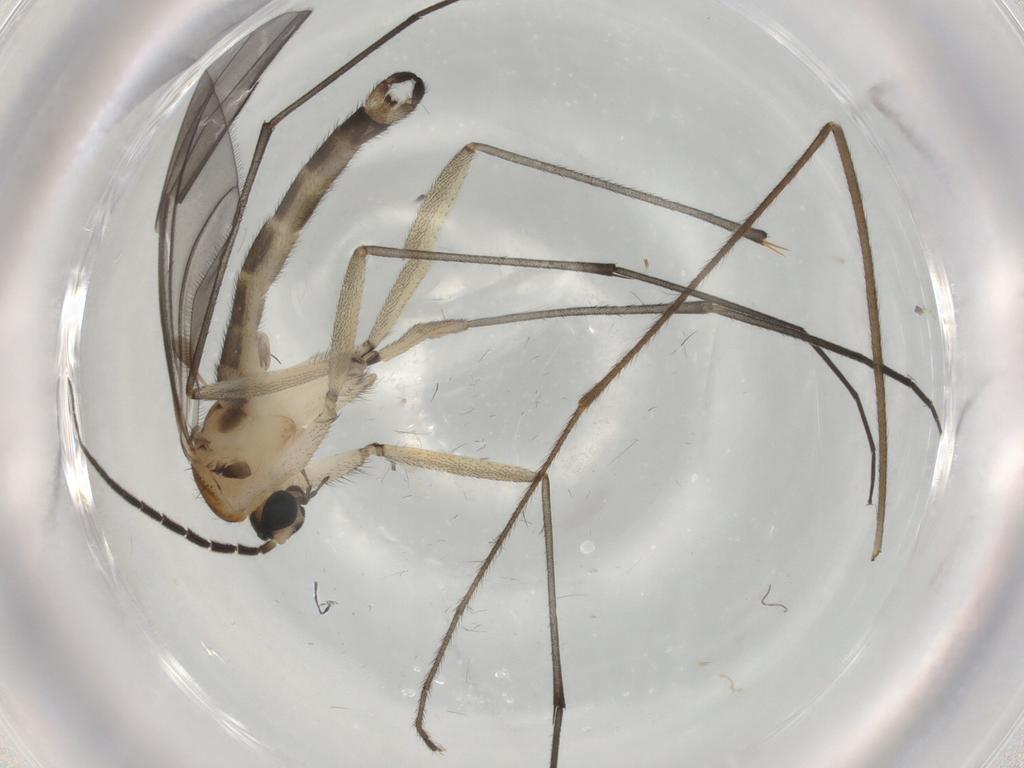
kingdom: Animalia
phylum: Arthropoda
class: Insecta
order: Diptera
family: Sciaridae
